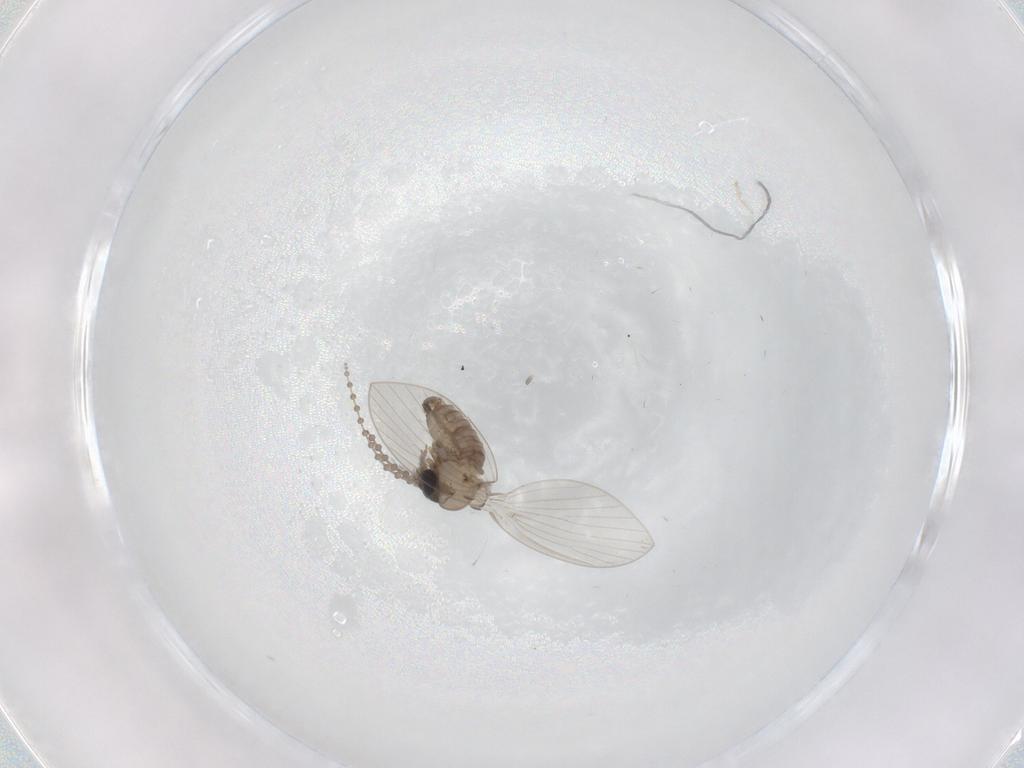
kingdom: Animalia
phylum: Arthropoda
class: Insecta
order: Diptera
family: Psychodidae
